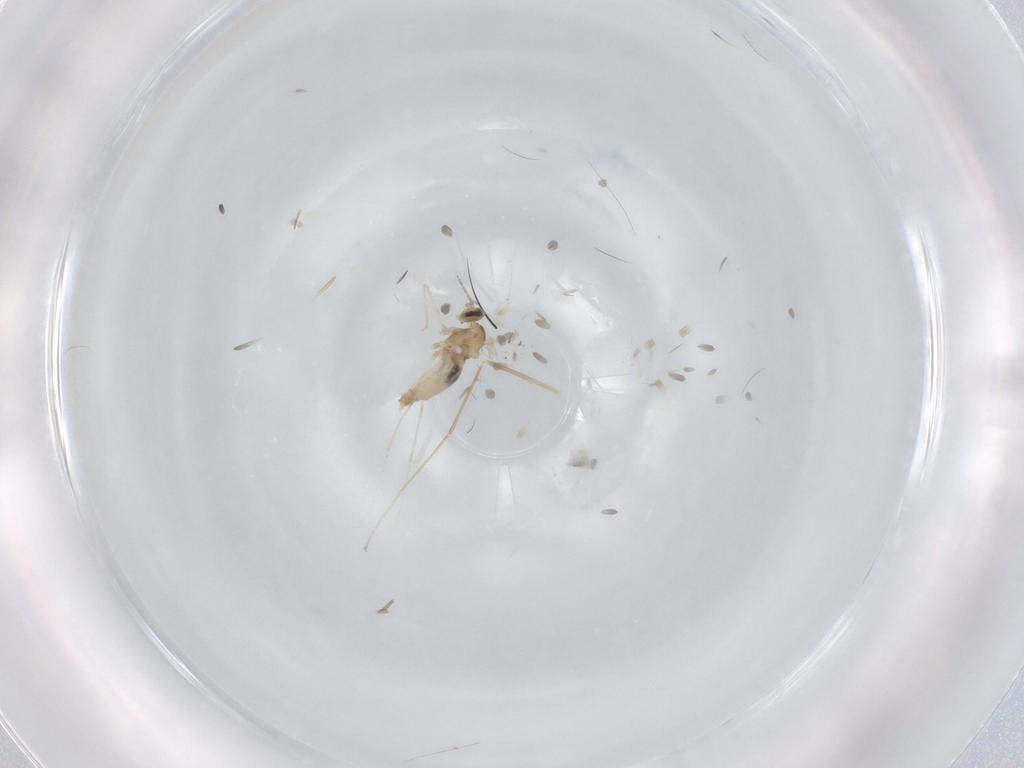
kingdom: Animalia
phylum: Arthropoda
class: Insecta
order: Diptera
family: Cecidomyiidae
